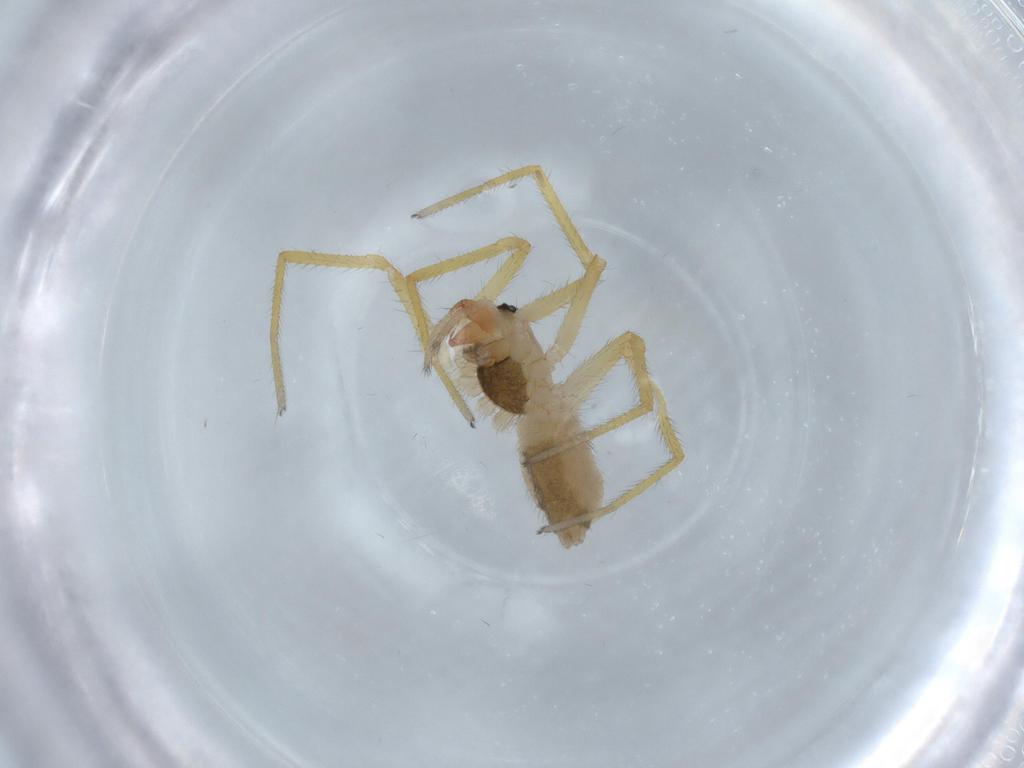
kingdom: Animalia
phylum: Arthropoda
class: Arachnida
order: Araneae
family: Linyphiidae
